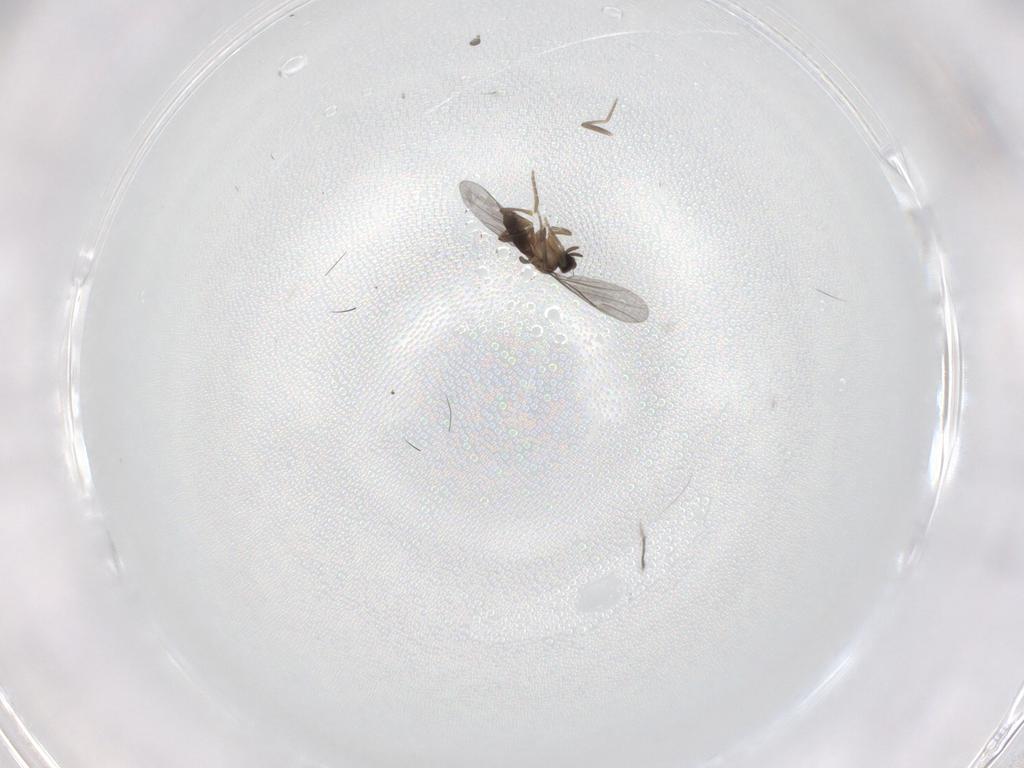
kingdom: Animalia
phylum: Arthropoda
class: Insecta
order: Diptera
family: Cecidomyiidae
